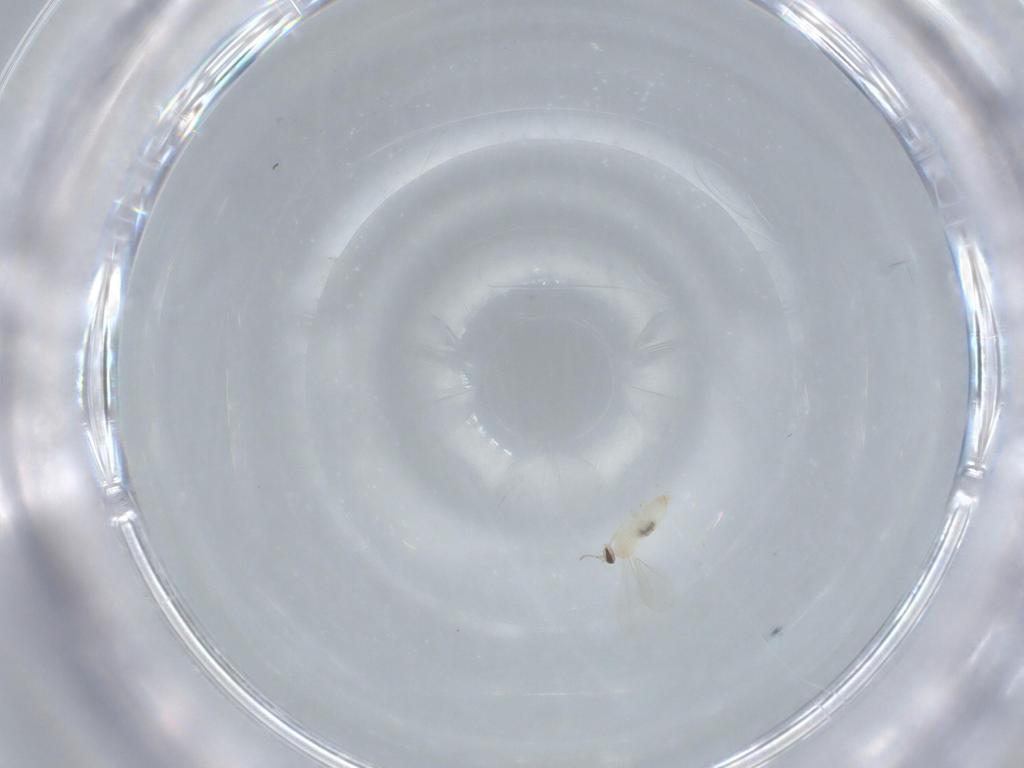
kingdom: Animalia
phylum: Arthropoda
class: Insecta
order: Diptera
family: Cecidomyiidae
